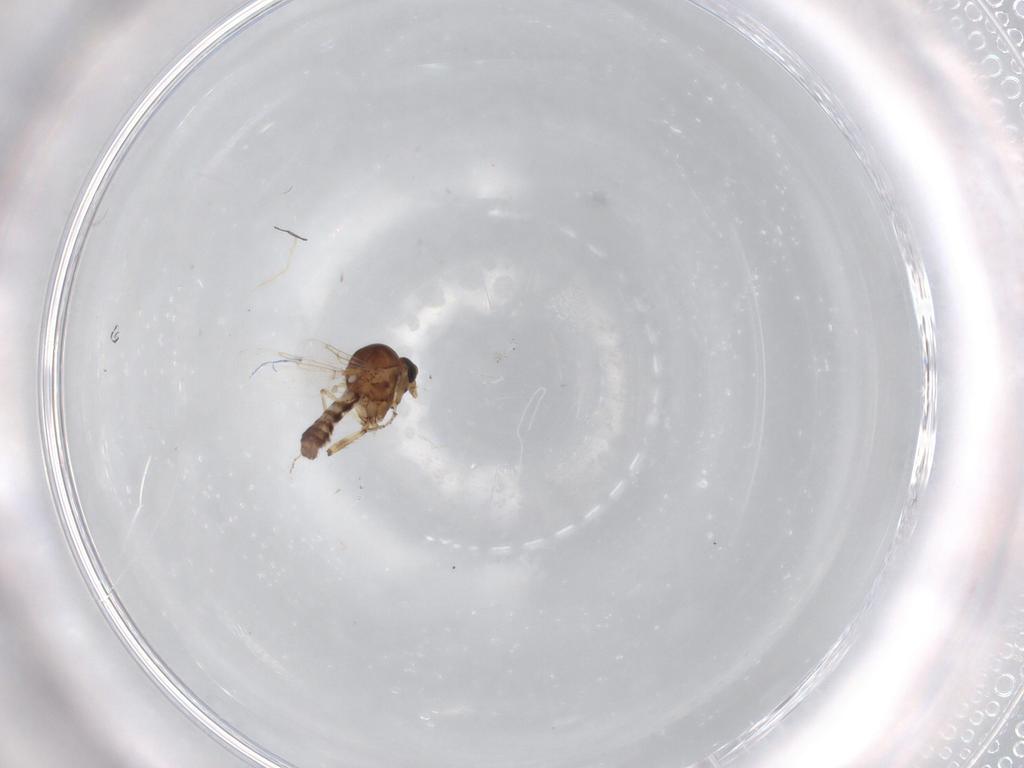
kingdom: Animalia
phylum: Arthropoda
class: Insecta
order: Diptera
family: Ceratopogonidae
